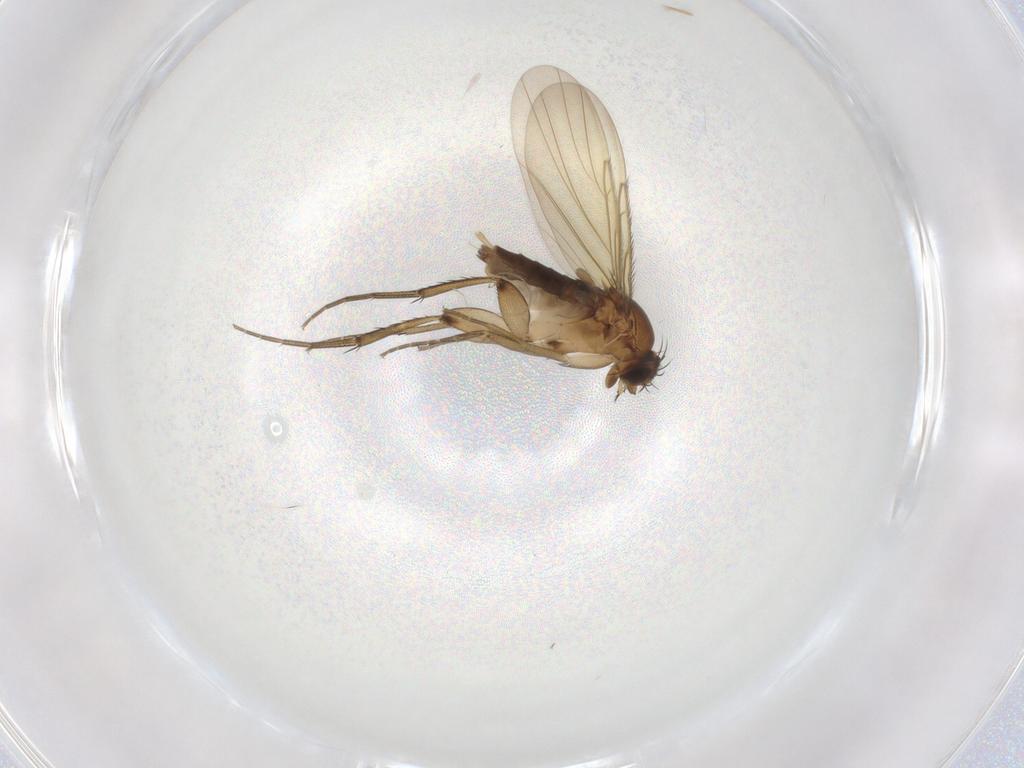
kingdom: Animalia
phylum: Arthropoda
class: Insecta
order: Diptera
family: Phoridae
